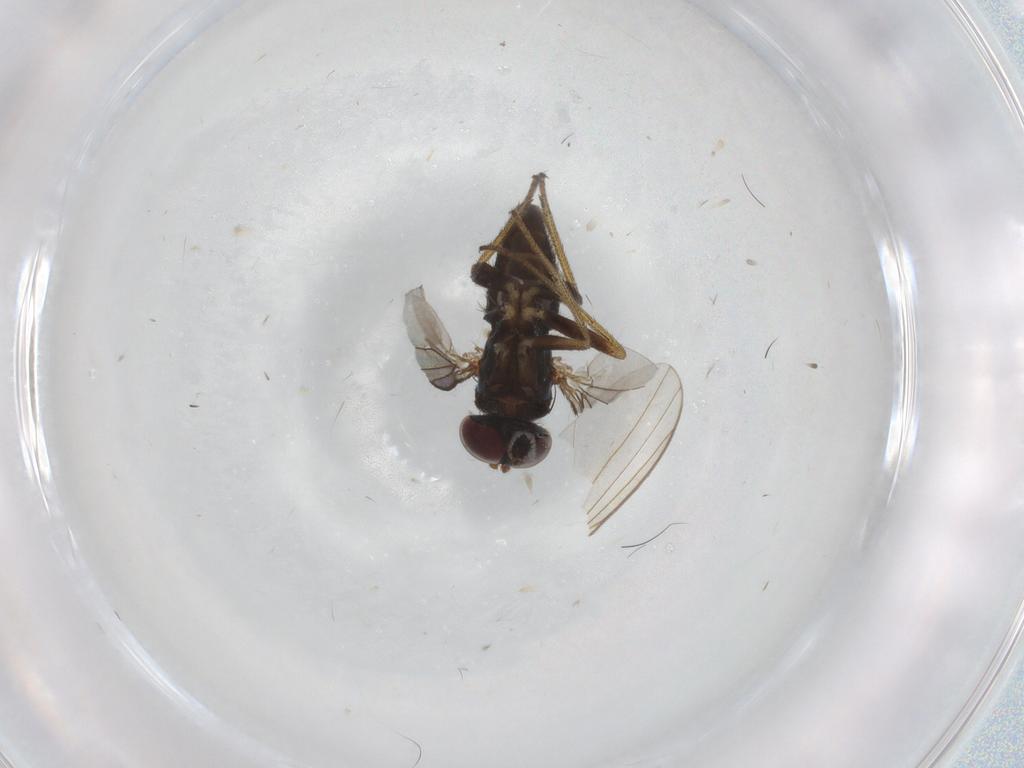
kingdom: Animalia
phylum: Arthropoda
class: Insecta
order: Diptera
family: Dolichopodidae
